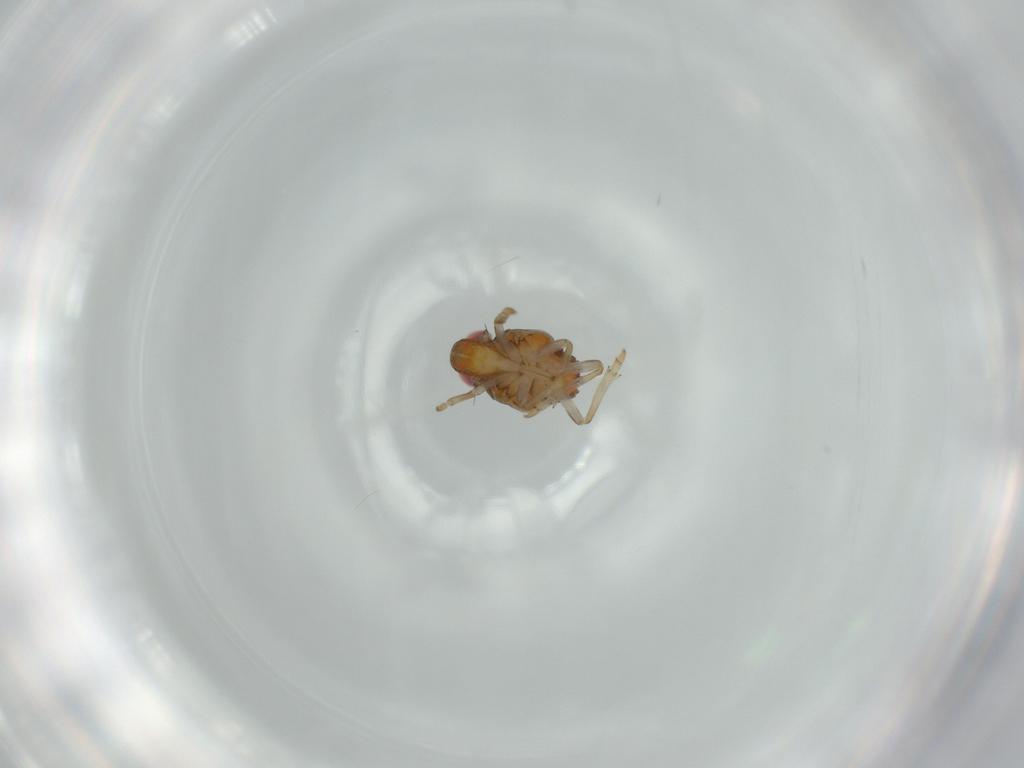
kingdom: Animalia
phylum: Arthropoda
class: Insecta
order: Hemiptera
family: Issidae
